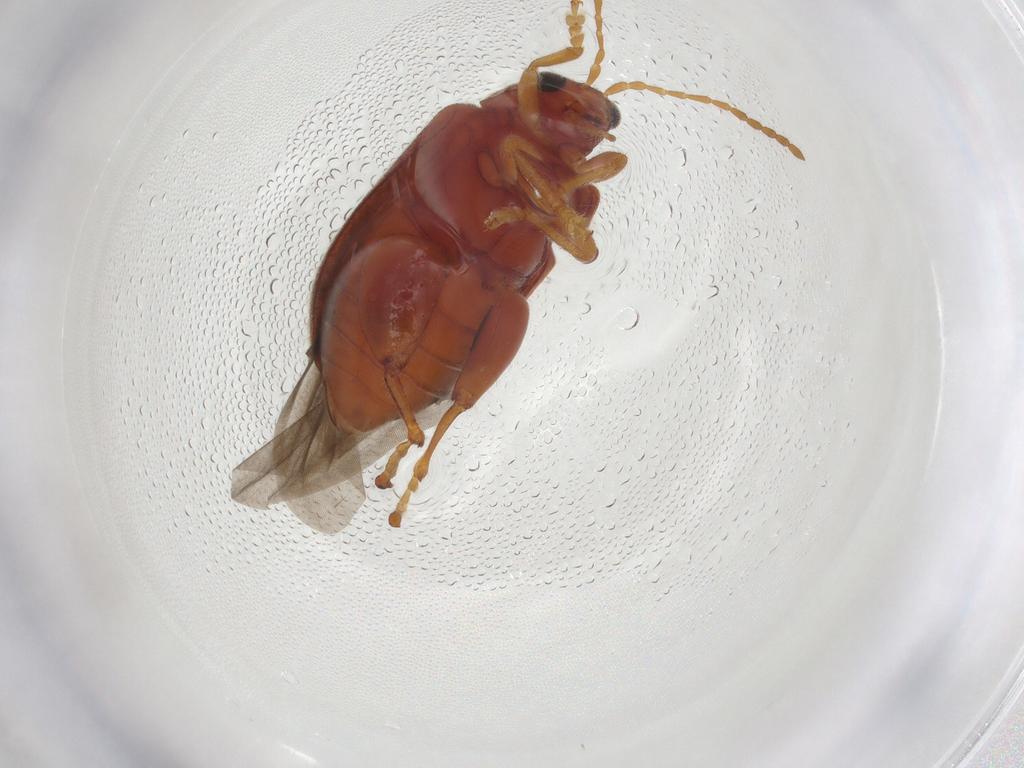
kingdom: Animalia
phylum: Arthropoda
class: Insecta
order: Coleoptera
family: Chrysomelidae
